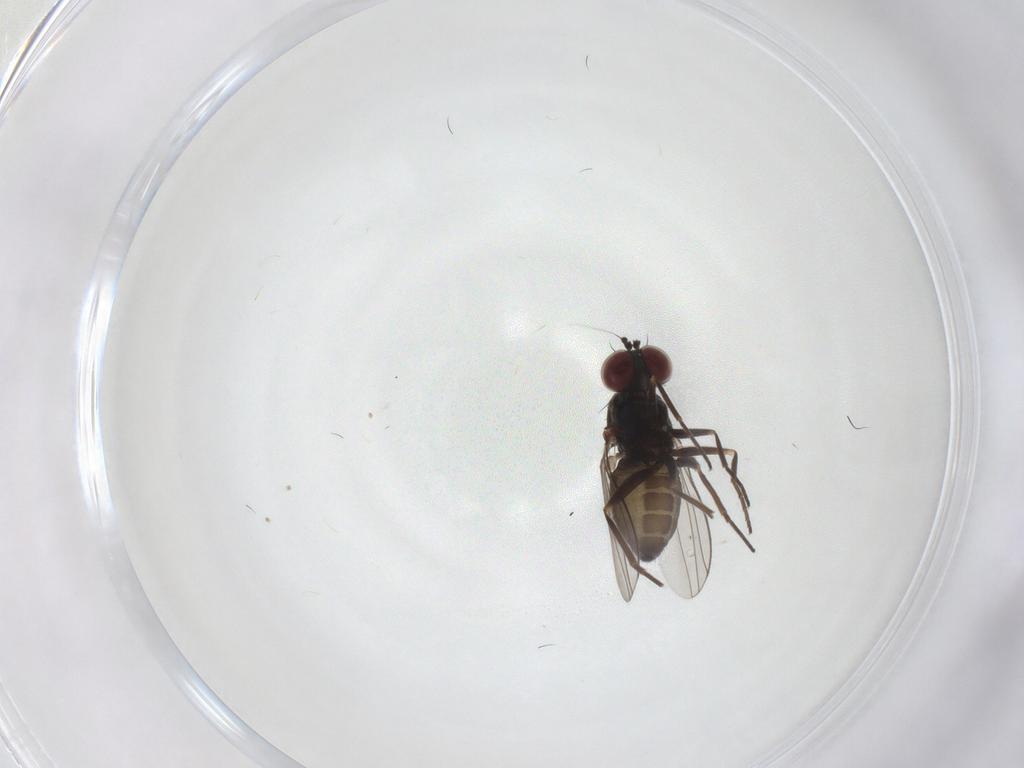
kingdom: Animalia
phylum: Arthropoda
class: Insecta
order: Diptera
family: Dolichopodidae
